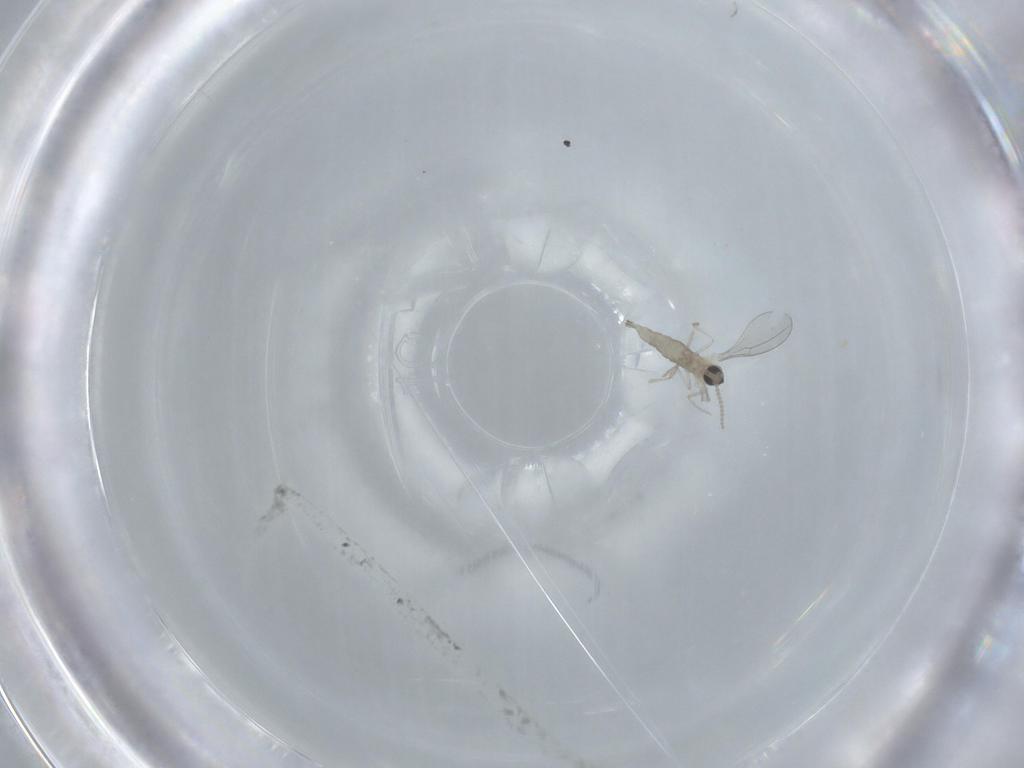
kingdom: Animalia
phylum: Arthropoda
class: Insecta
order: Diptera
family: Cecidomyiidae
